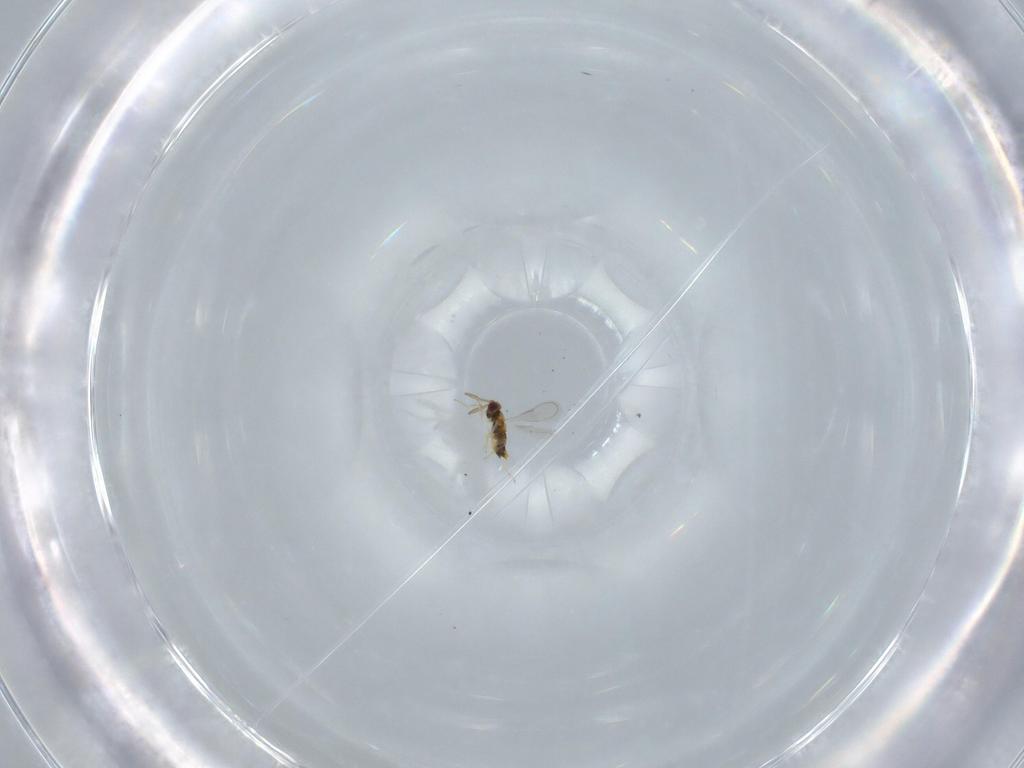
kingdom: Animalia
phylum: Arthropoda
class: Insecta
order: Hymenoptera
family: Aphelinidae
